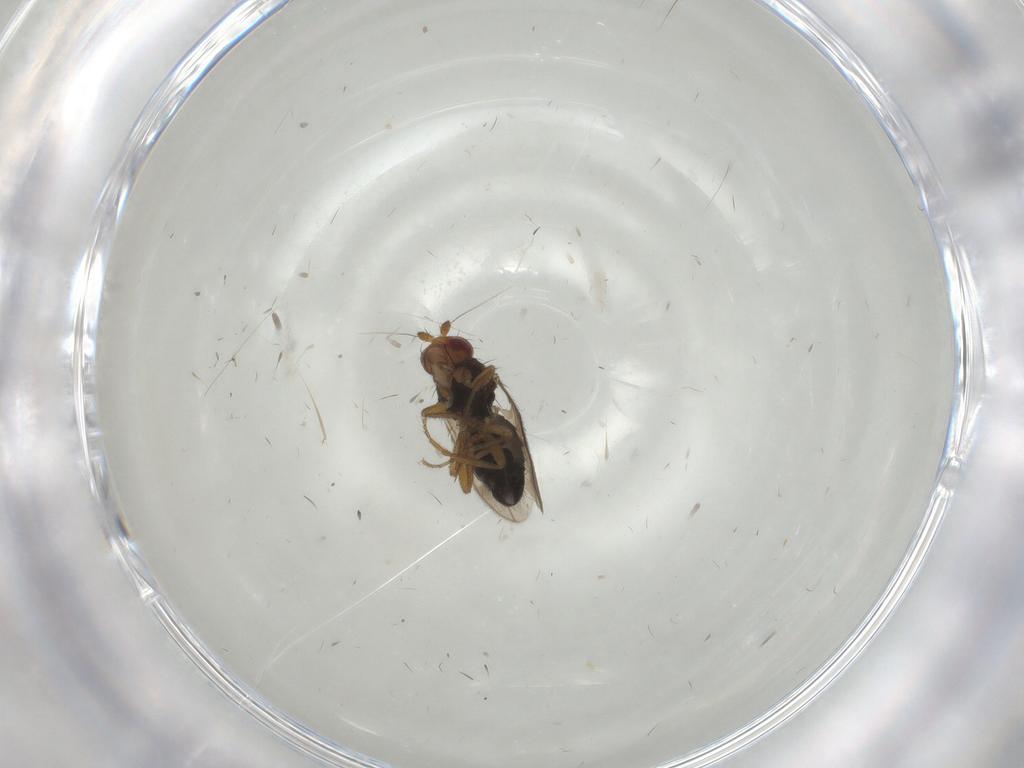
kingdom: Animalia
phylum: Arthropoda
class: Insecta
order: Diptera
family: Sphaeroceridae
